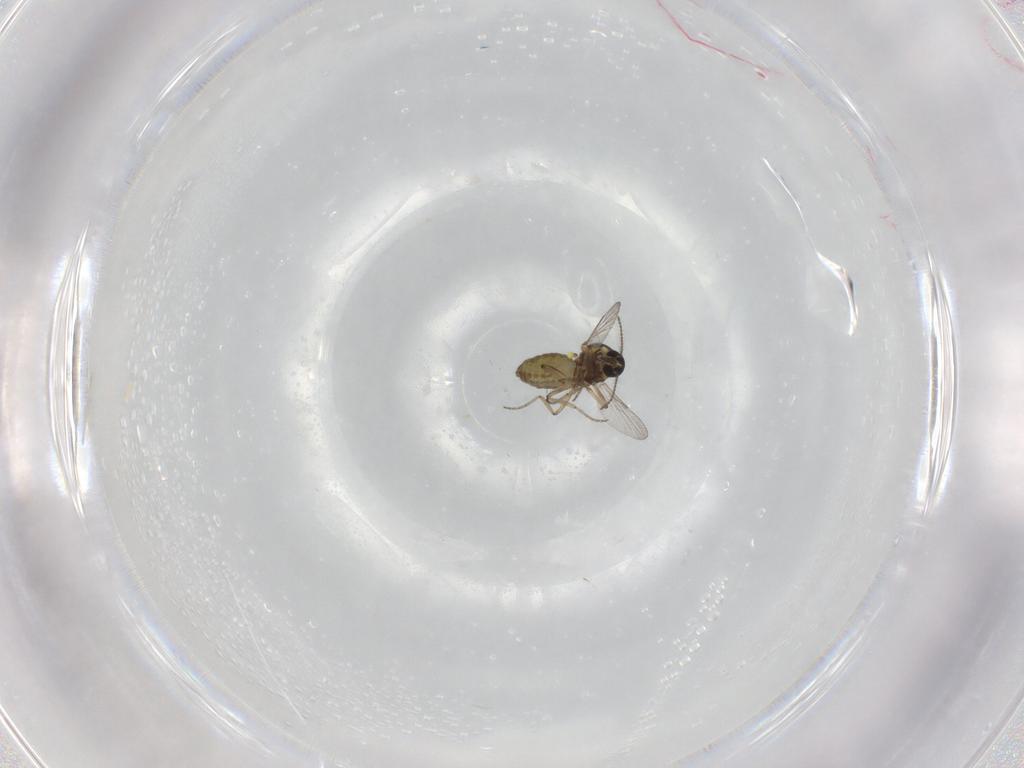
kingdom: Animalia
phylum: Arthropoda
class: Insecta
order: Diptera
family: Ceratopogonidae
